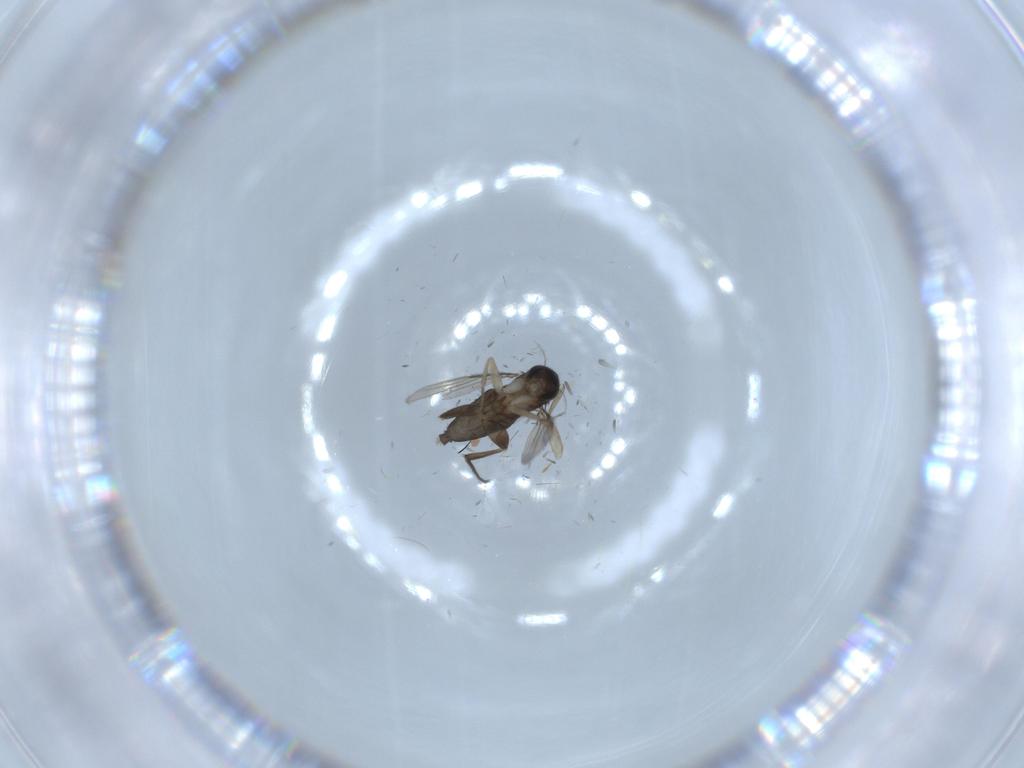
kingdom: Animalia
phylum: Arthropoda
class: Insecta
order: Diptera
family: Phoridae
